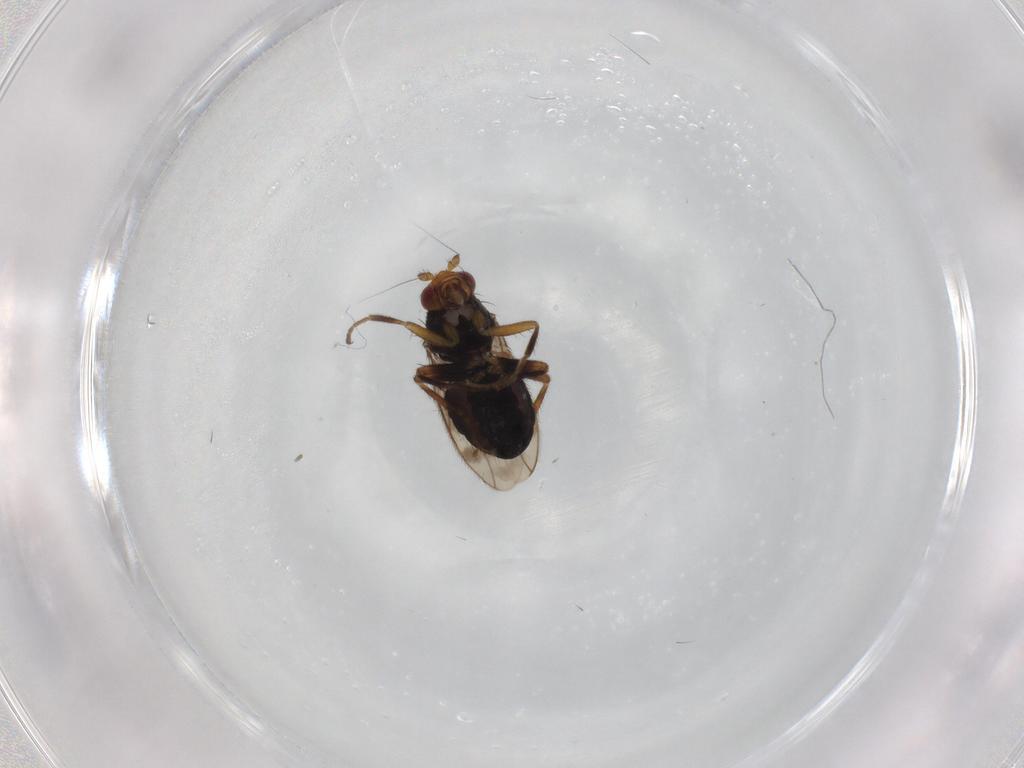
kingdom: Animalia
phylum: Arthropoda
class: Insecta
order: Diptera
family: Sphaeroceridae
